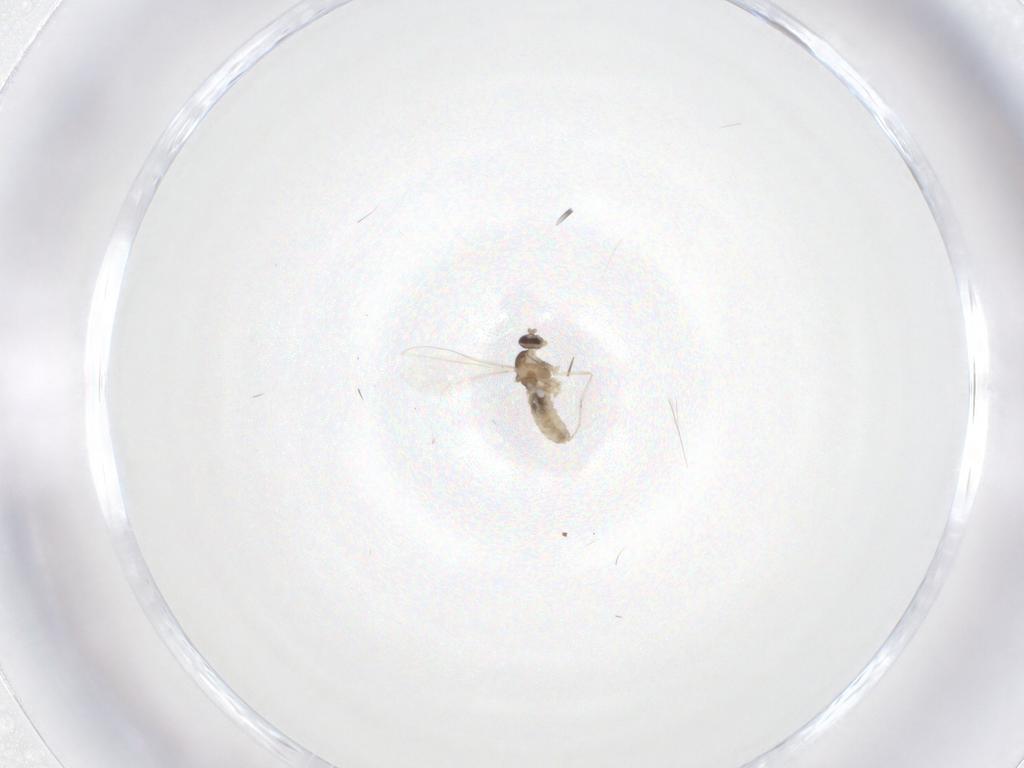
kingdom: Animalia
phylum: Arthropoda
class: Insecta
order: Diptera
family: Cecidomyiidae
